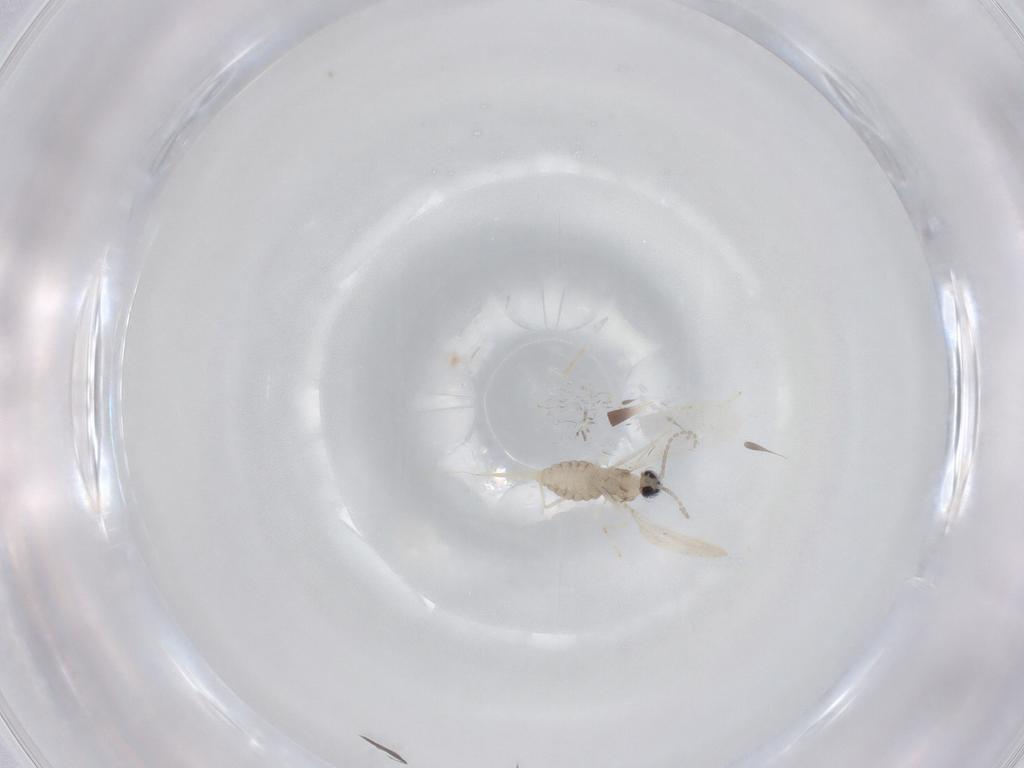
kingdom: Animalia
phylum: Arthropoda
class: Insecta
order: Diptera
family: Cecidomyiidae
